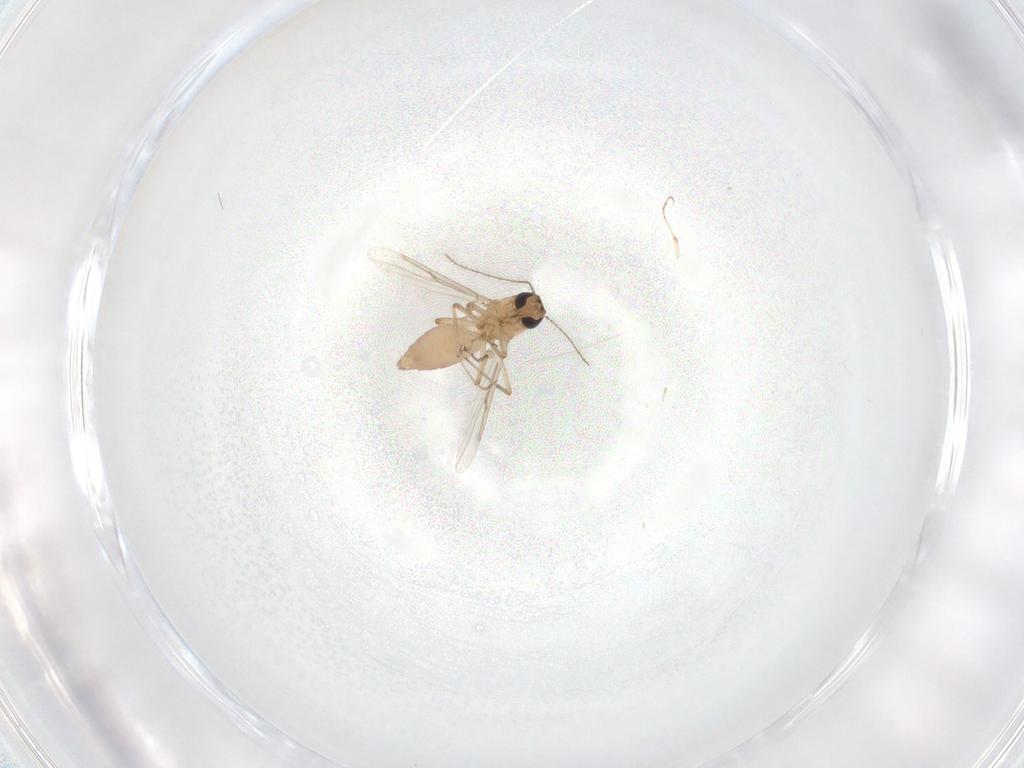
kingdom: Animalia
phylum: Arthropoda
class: Insecta
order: Diptera
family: Ceratopogonidae
